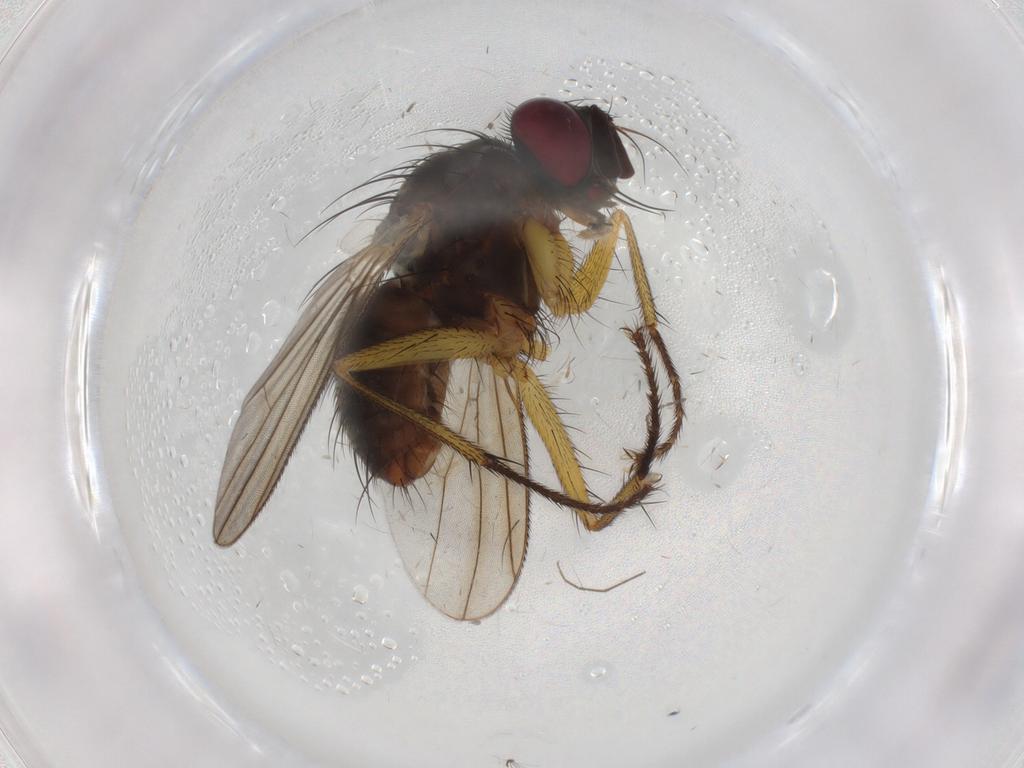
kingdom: Animalia
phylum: Arthropoda
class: Insecta
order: Diptera
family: Muscidae
